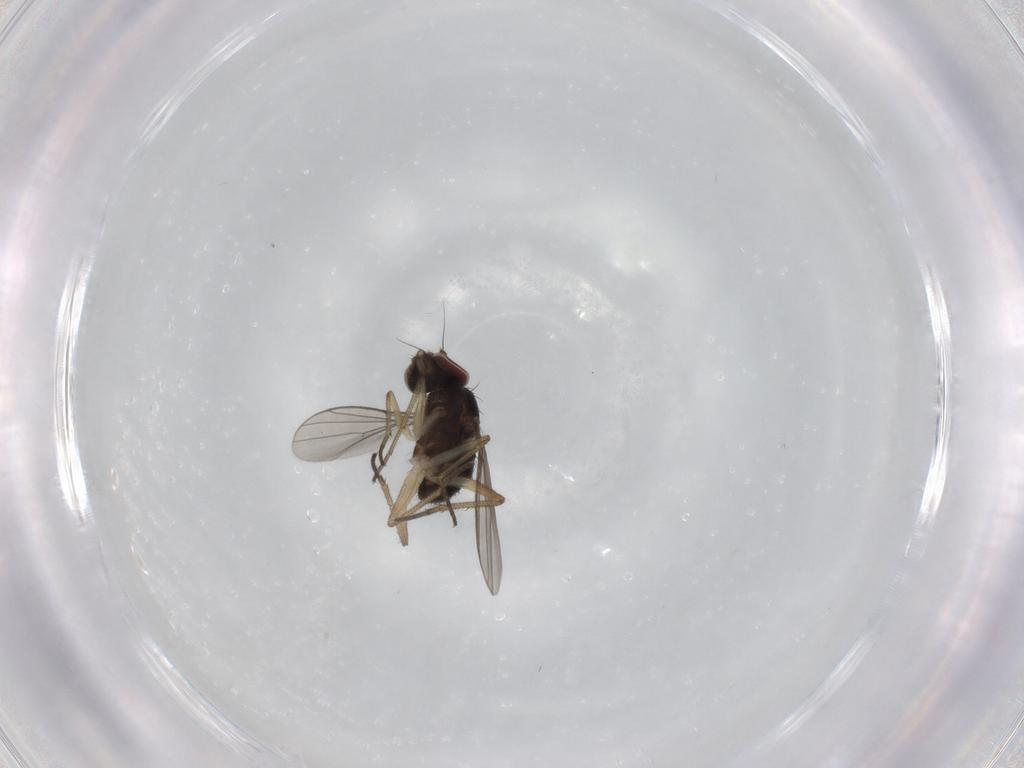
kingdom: Animalia
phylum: Arthropoda
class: Insecta
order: Diptera
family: Dolichopodidae
